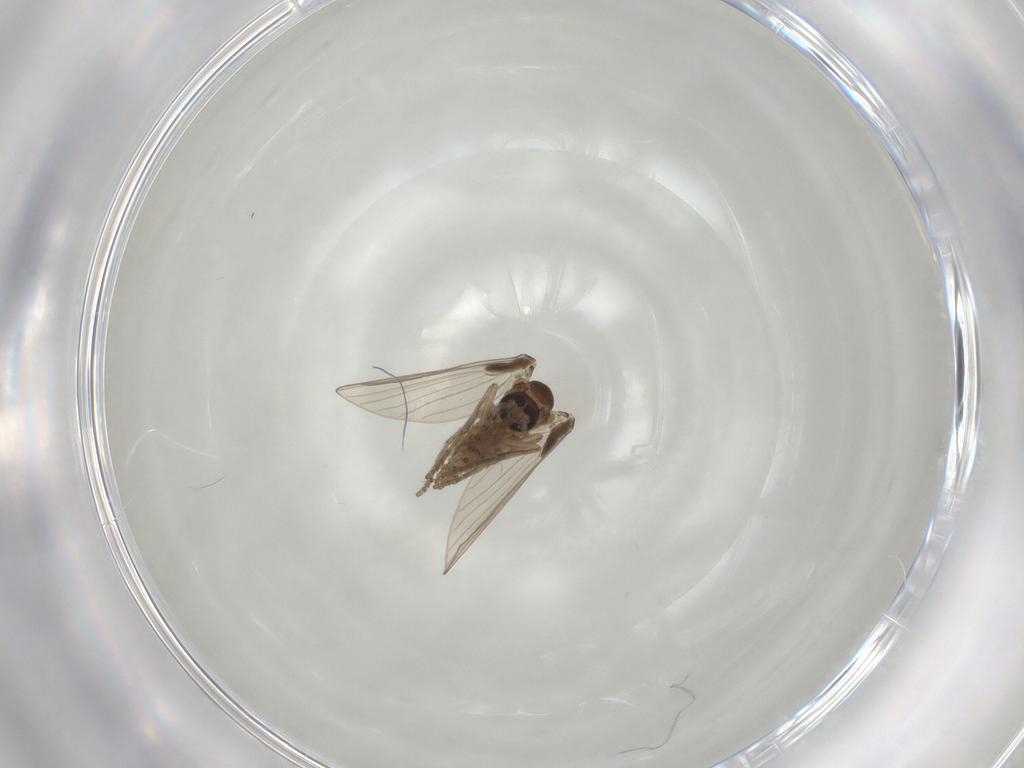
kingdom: Animalia
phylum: Arthropoda
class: Insecta
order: Diptera
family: Psychodidae
